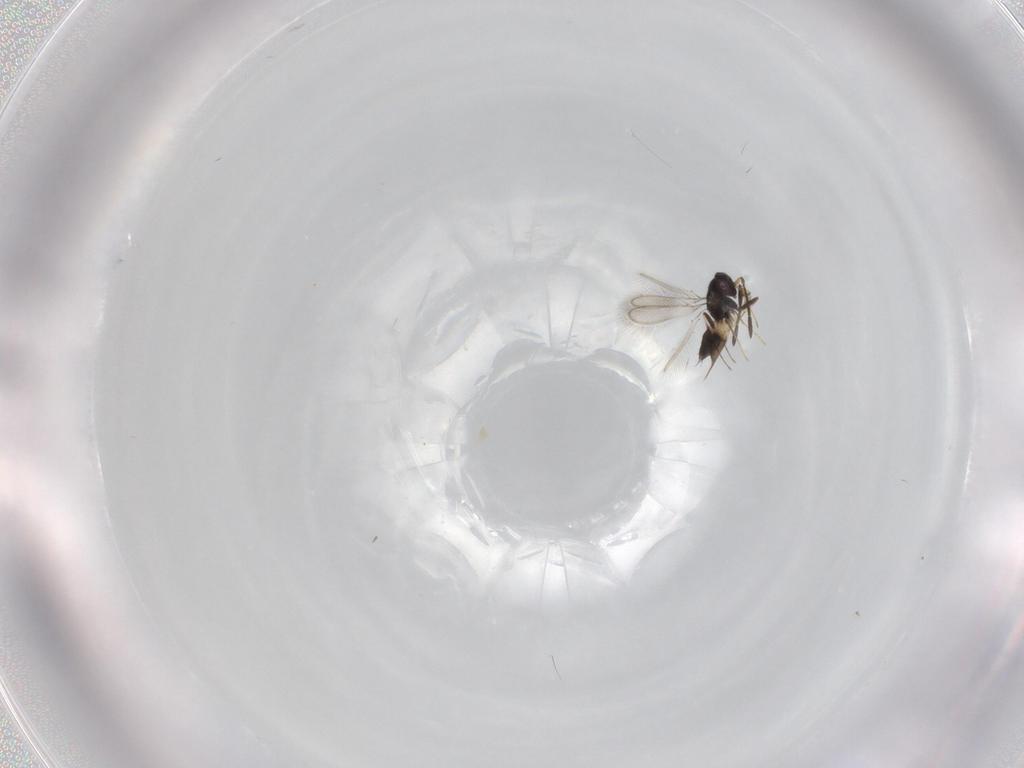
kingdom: Animalia
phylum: Arthropoda
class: Insecta
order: Hymenoptera
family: Mymaridae
